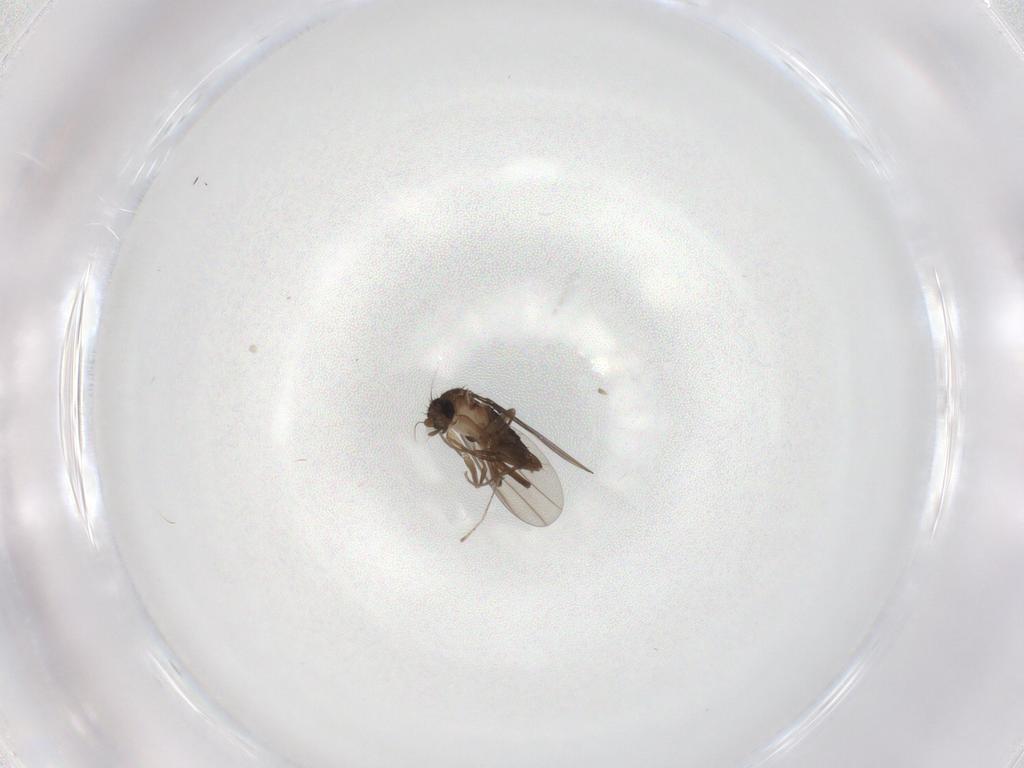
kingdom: Animalia
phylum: Arthropoda
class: Insecta
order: Diptera
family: Phoridae
